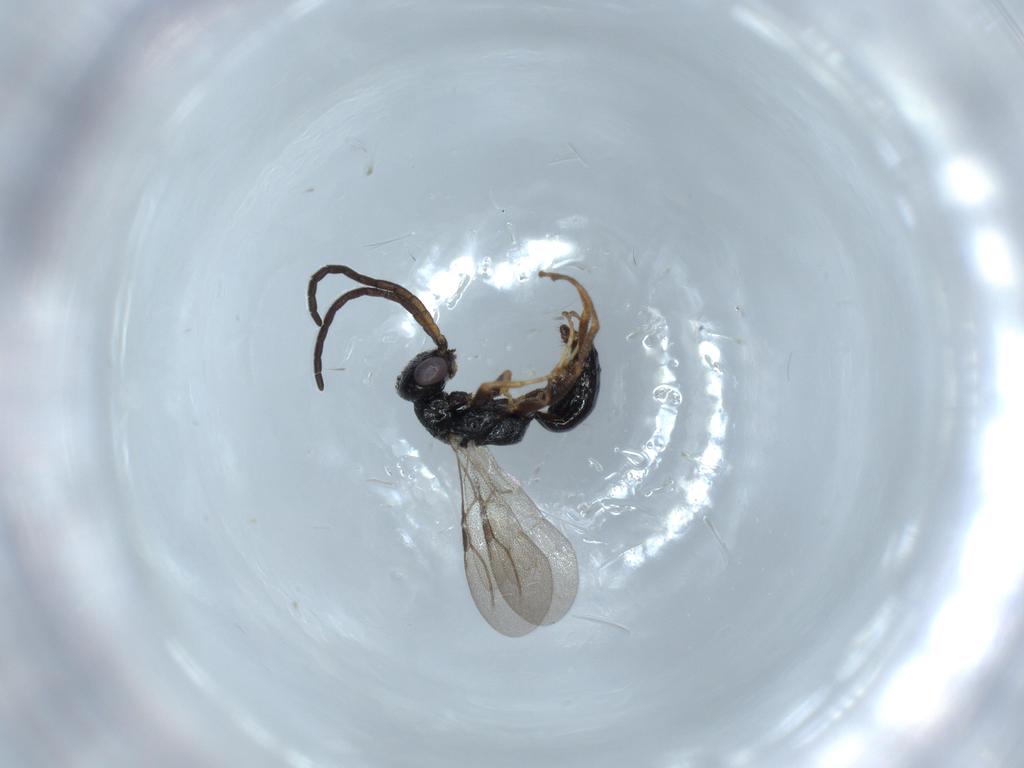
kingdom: Animalia
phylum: Arthropoda
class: Insecta
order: Hymenoptera
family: Bethylidae
